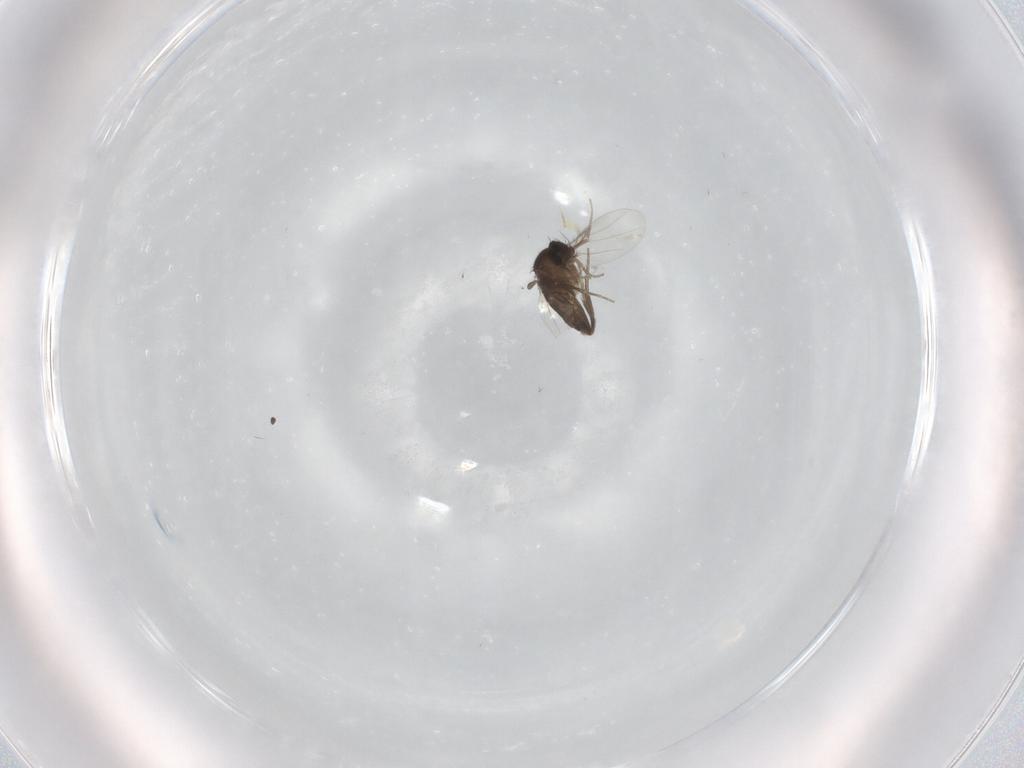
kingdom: Animalia
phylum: Arthropoda
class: Insecta
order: Diptera
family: Phoridae
